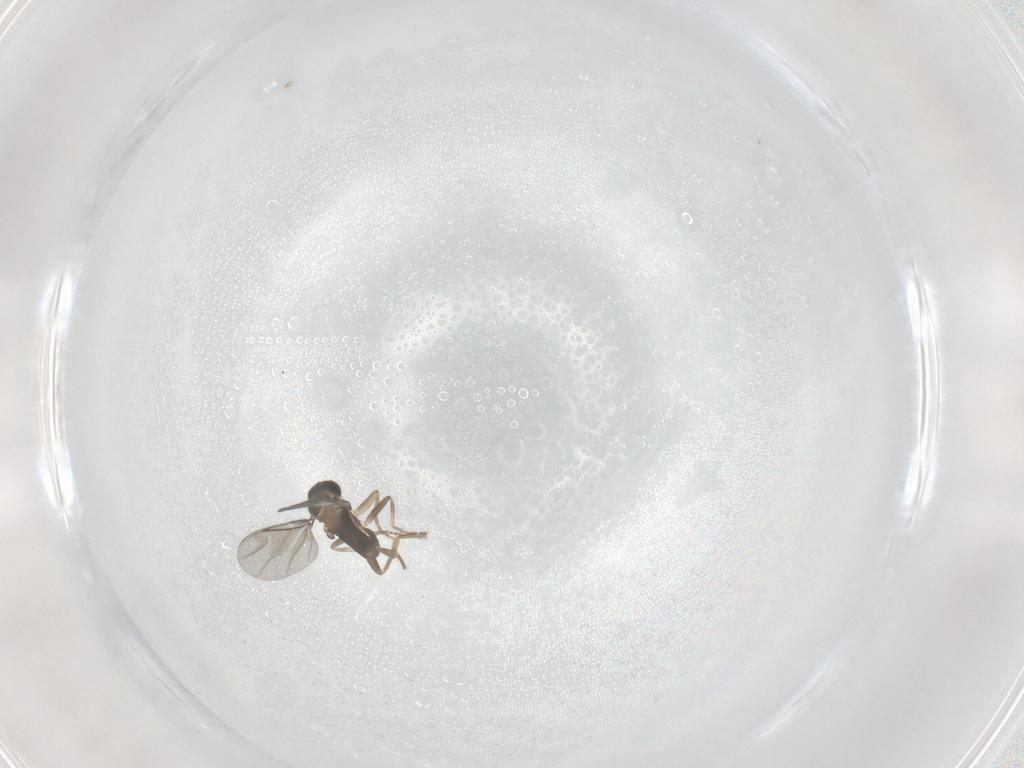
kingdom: Animalia
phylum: Arthropoda
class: Insecta
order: Diptera
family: Cecidomyiidae
